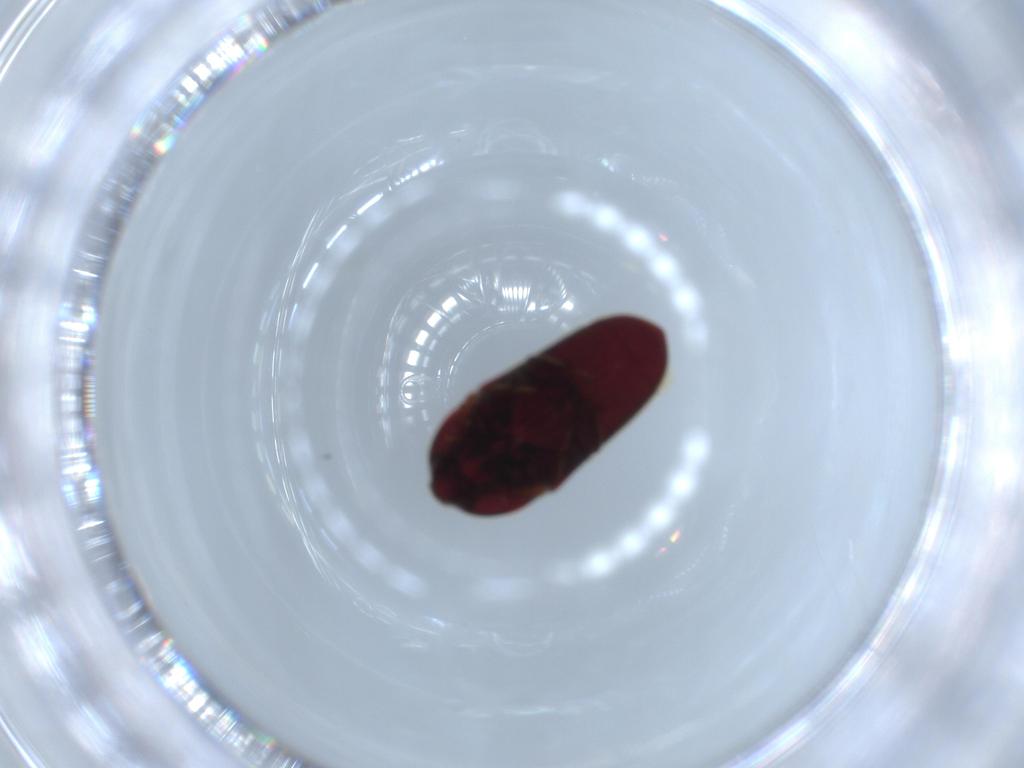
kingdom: Animalia
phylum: Arthropoda
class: Insecta
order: Coleoptera
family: Throscidae
